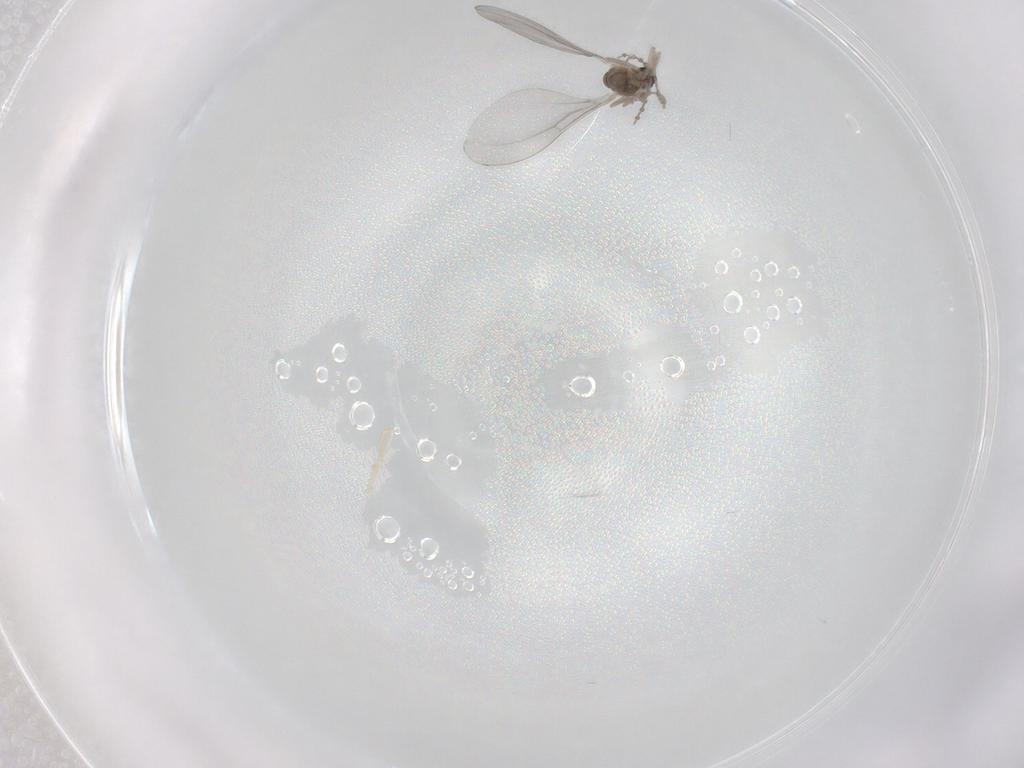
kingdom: Animalia
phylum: Arthropoda
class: Insecta
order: Diptera
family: Cecidomyiidae
